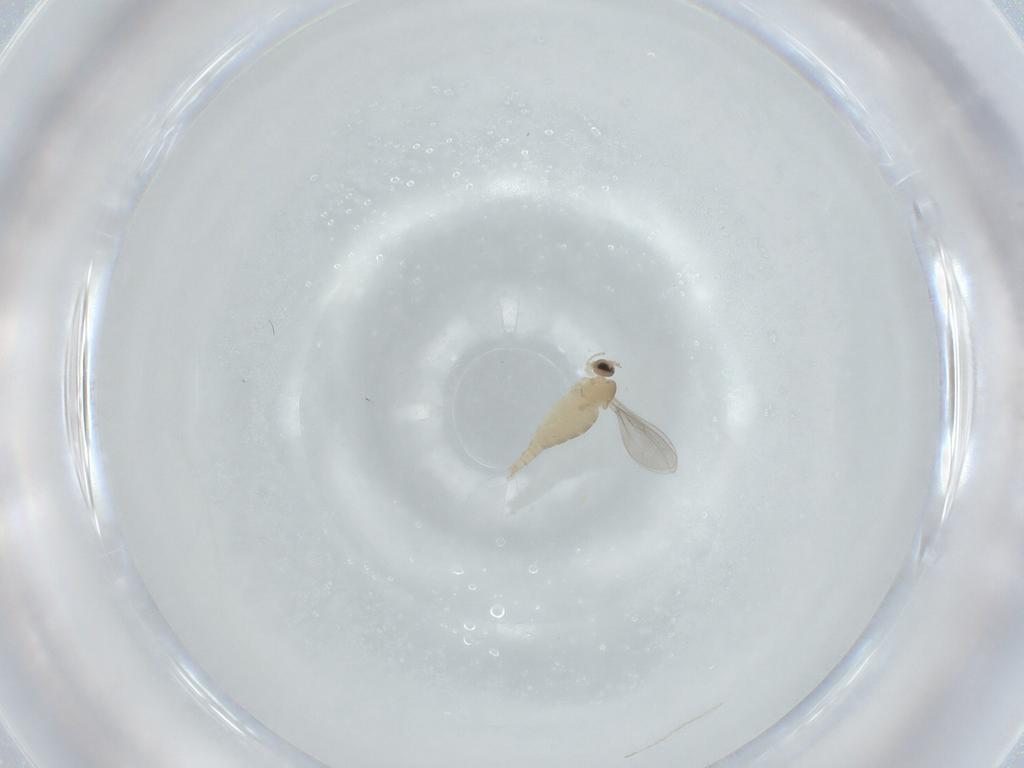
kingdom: Animalia
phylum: Arthropoda
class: Insecta
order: Diptera
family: Cecidomyiidae
